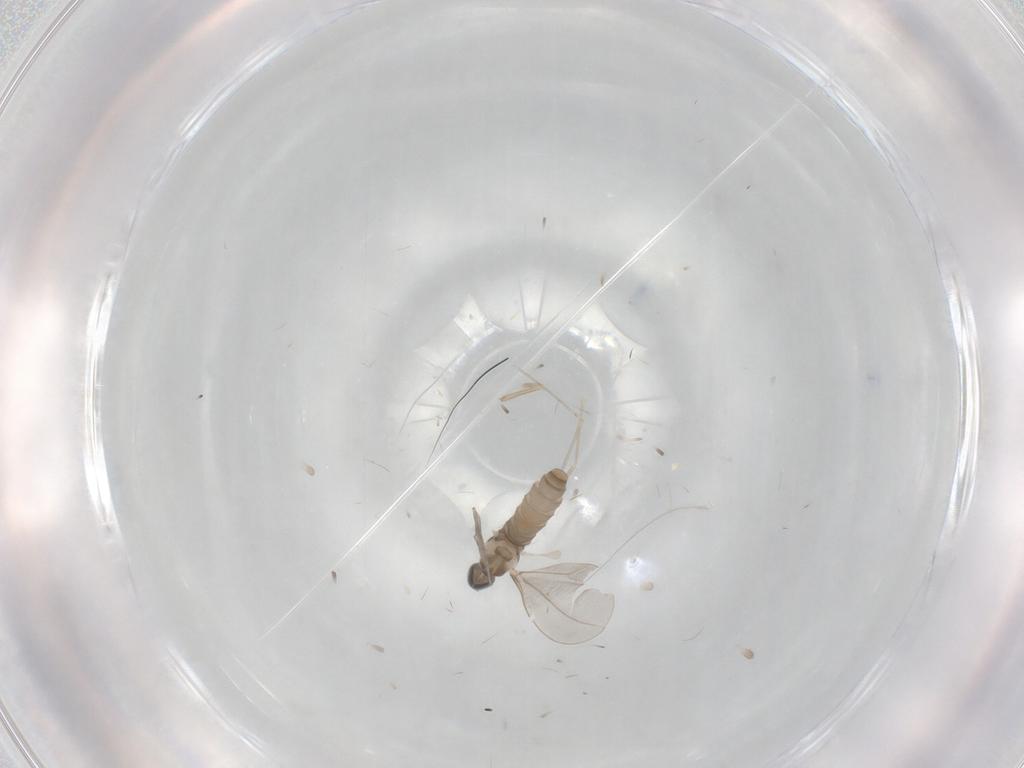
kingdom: Animalia
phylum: Arthropoda
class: Insecta
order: Diptera
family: Cecidomyiidae
